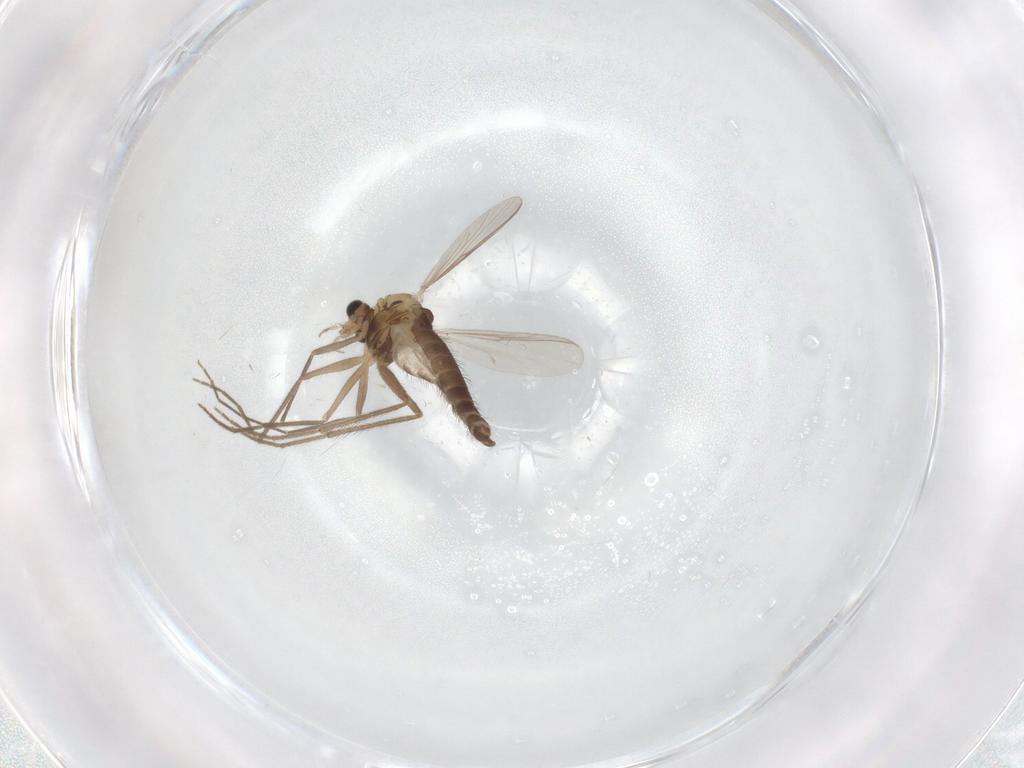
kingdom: Animalia
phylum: Arthropoda
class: Insecta
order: Diptera
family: Chironomidae
